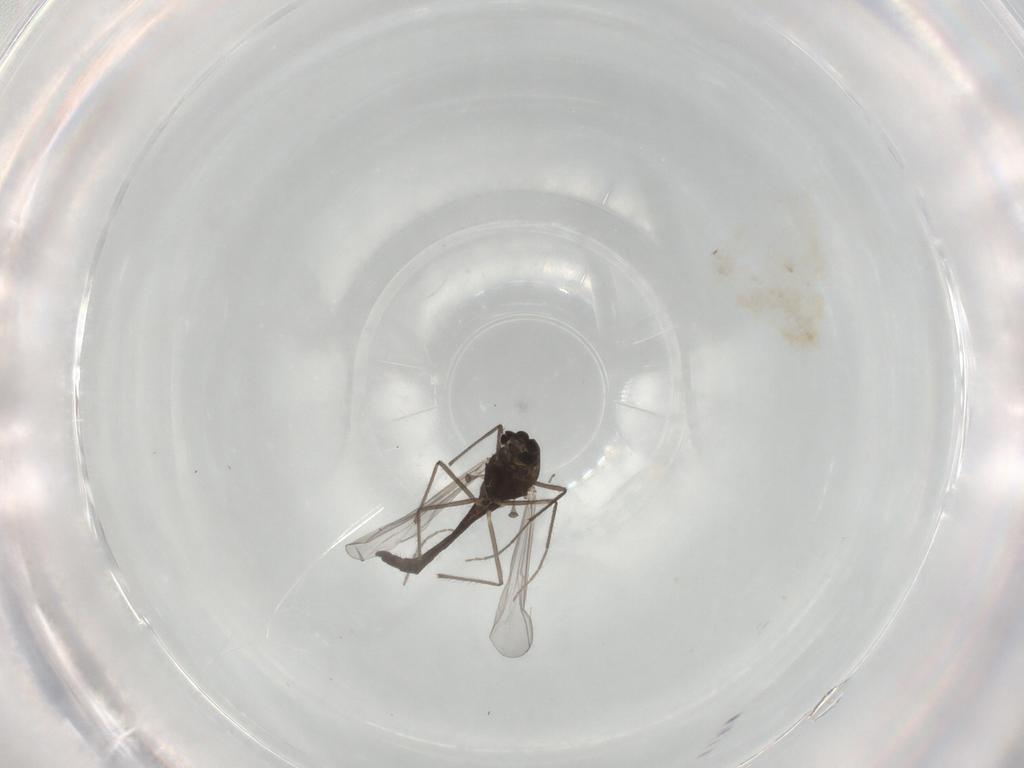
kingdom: Animalia
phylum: Arthropoda
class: Insecta
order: Diptera
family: Chironomidae
